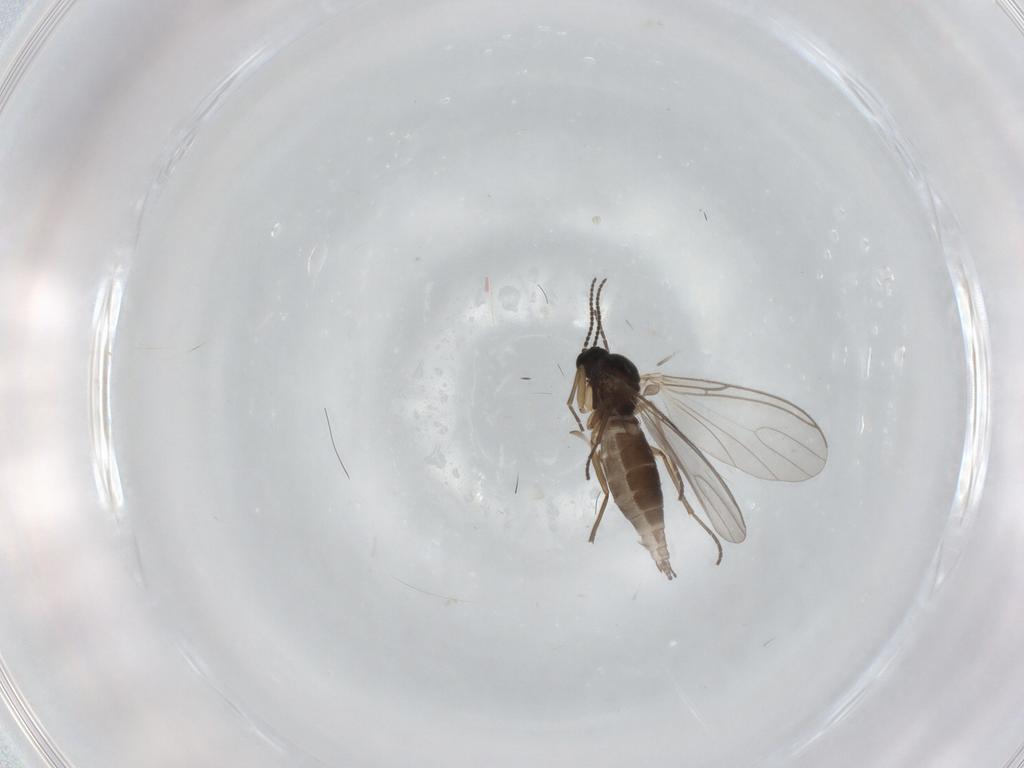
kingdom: Animalia
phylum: Arthropoda
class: Insecta
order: Diptera
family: Sciaridae
